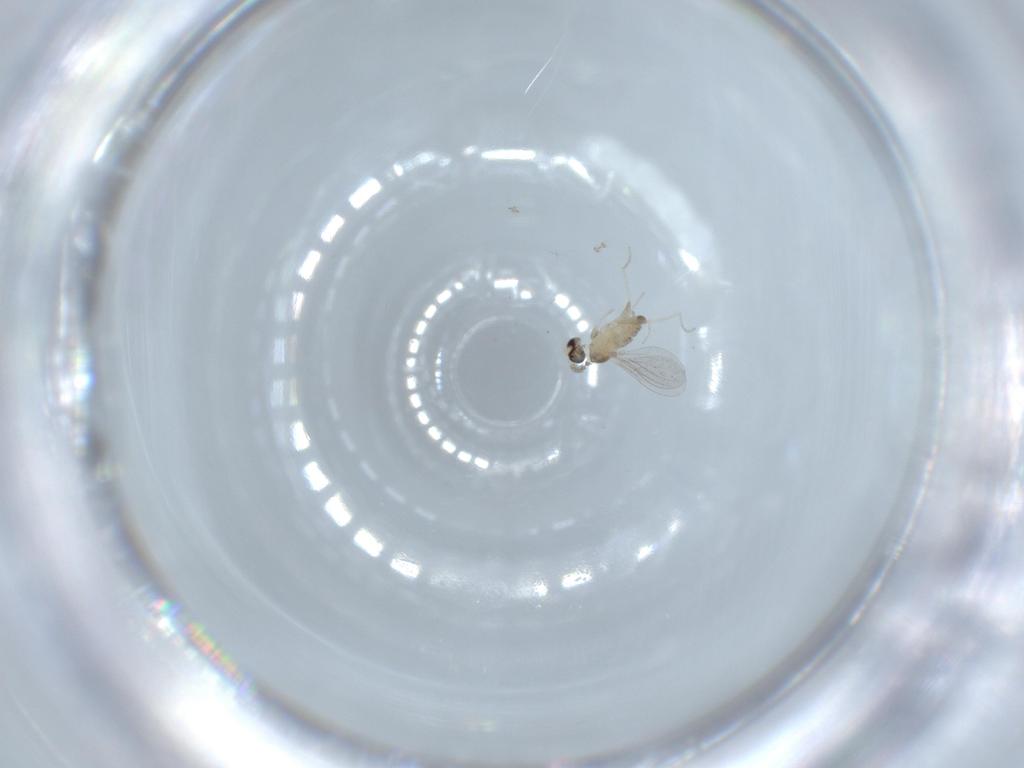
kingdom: Animalia
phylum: Arthropoda
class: Insecta
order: Diptera
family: Cecidomyiidae
